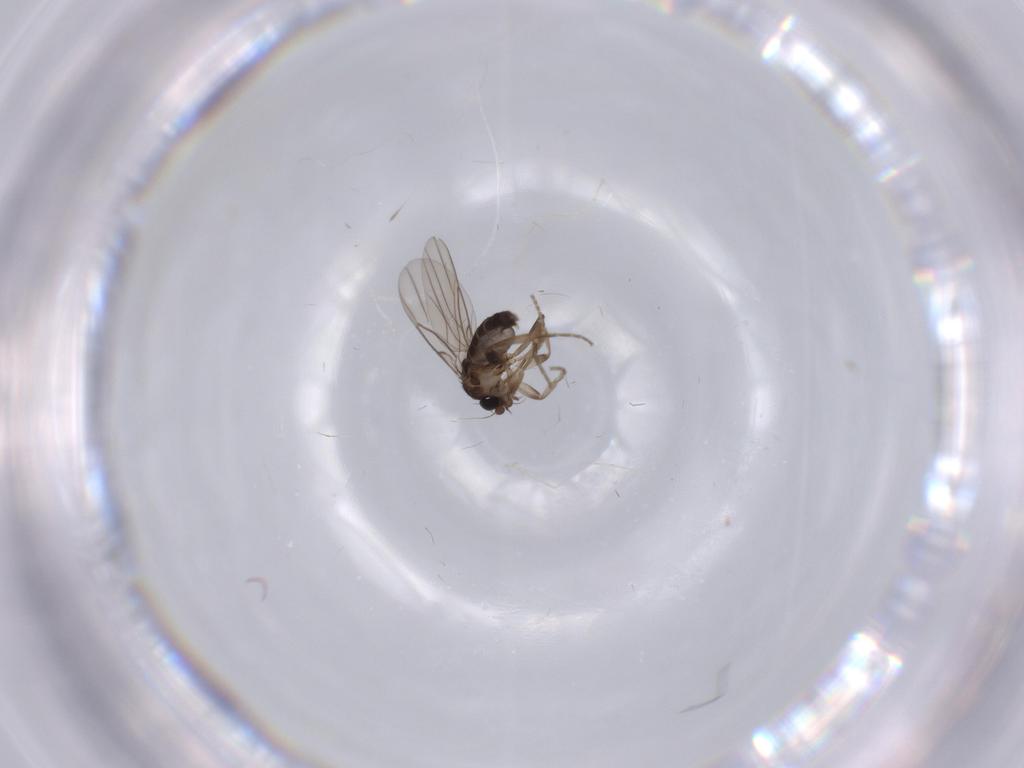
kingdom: Animalia
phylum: Arthropoda
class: Insecta
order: Diptera
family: Phoridae
